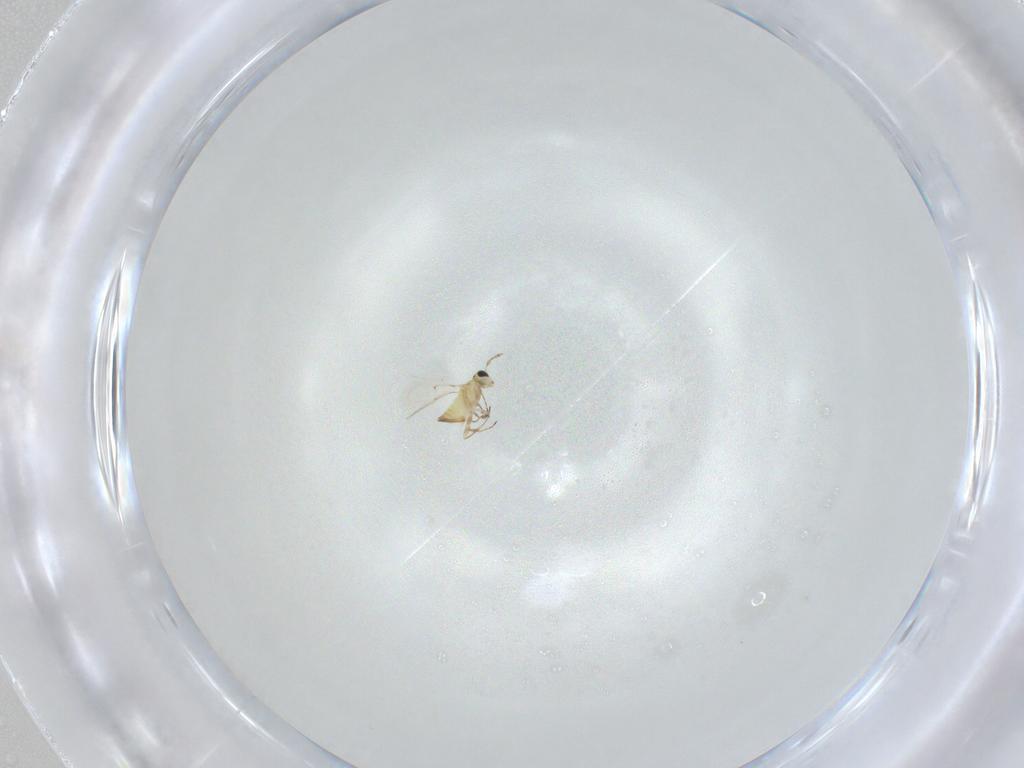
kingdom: Animalia
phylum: Arthropoda
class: Insecta
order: Hymenoptera
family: Trichogrammatidae
